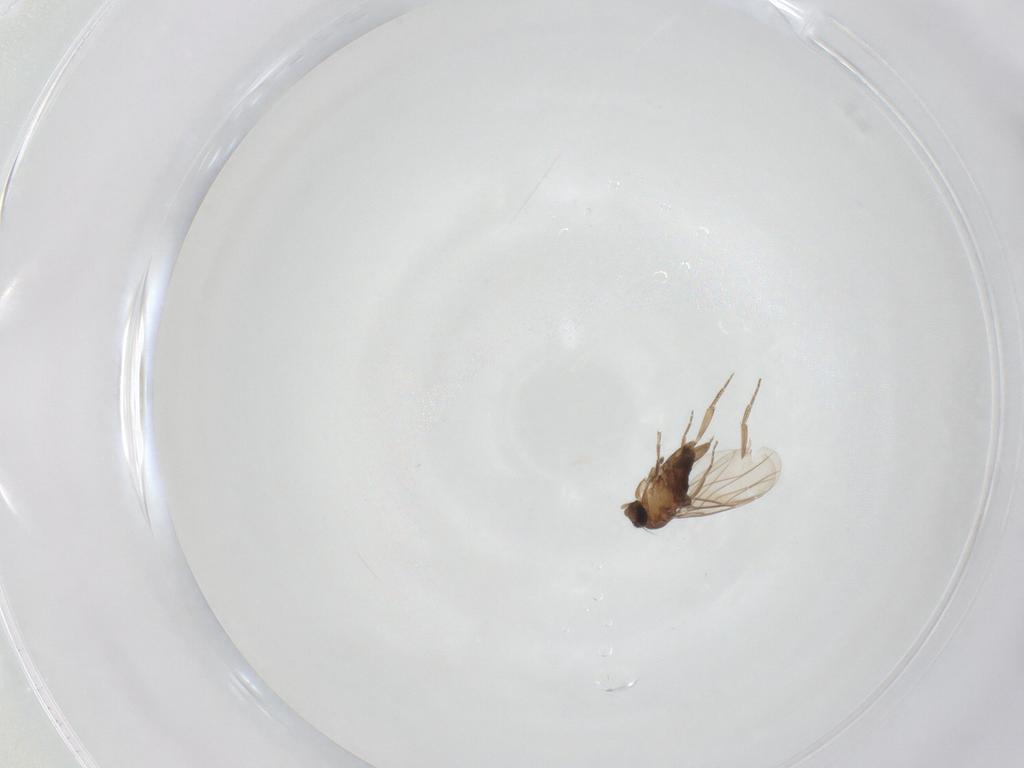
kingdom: Animalia
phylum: Arthropoda
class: Insecta
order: Diptera
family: Phoridae
